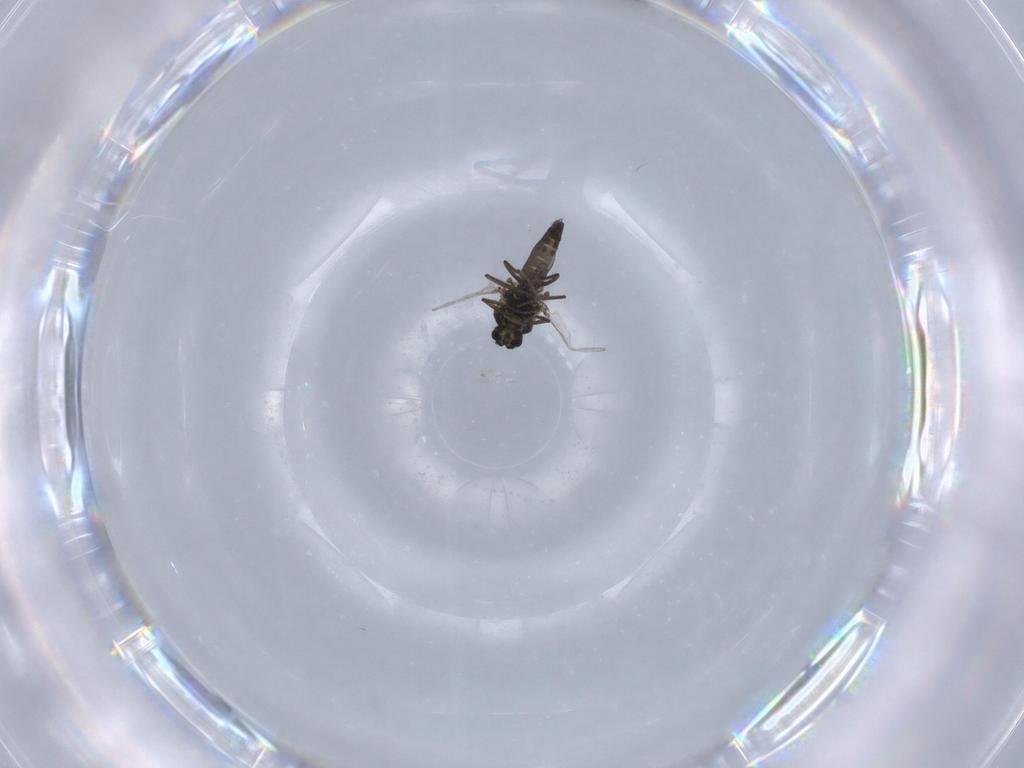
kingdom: Animalia
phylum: Arthropoda
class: Insecta
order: Diptera
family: Ceratopogonidae
